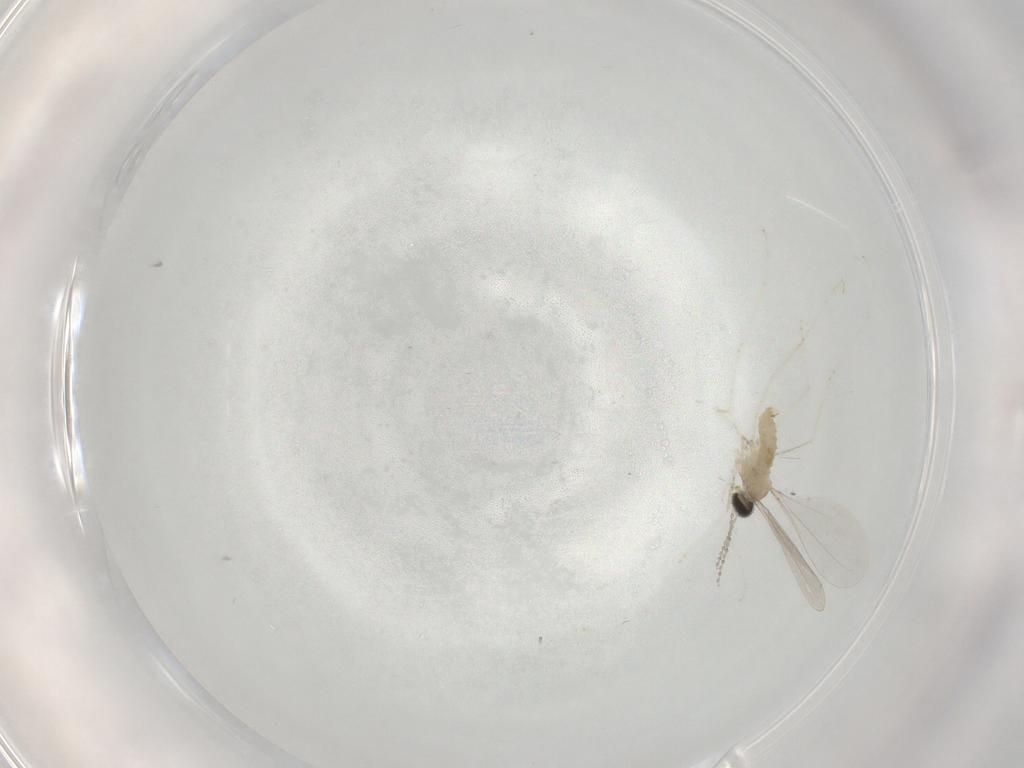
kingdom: Animalia
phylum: Arthropoda
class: Insecta
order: Diptera
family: Cecidomyiidae
